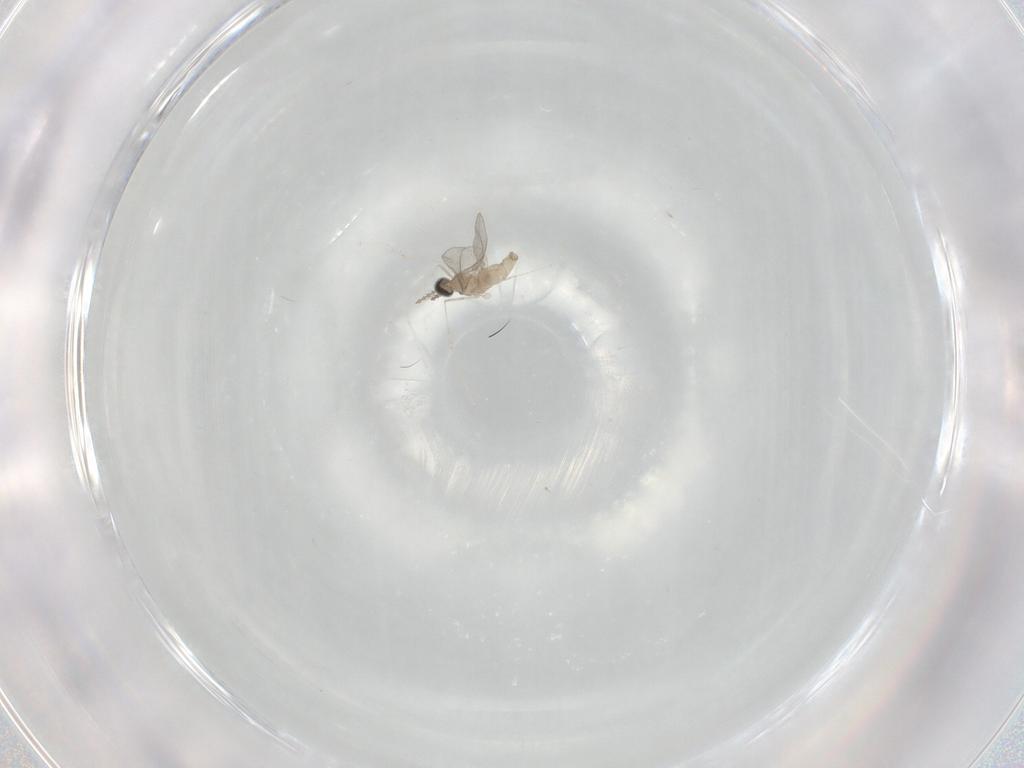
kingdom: Animalia
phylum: Arthropoda
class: Insecta
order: Diptera
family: Cecidomyiidae
